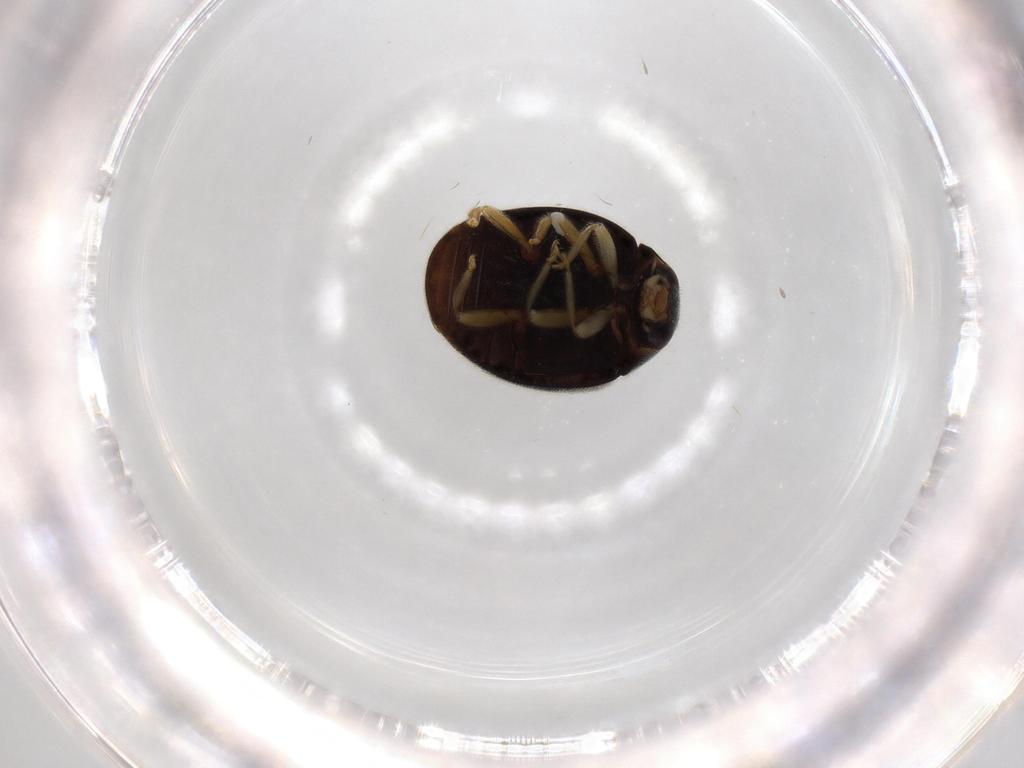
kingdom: Animalia
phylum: Arthropoda
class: Insecta
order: Coleoptera
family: Coccinellidae
